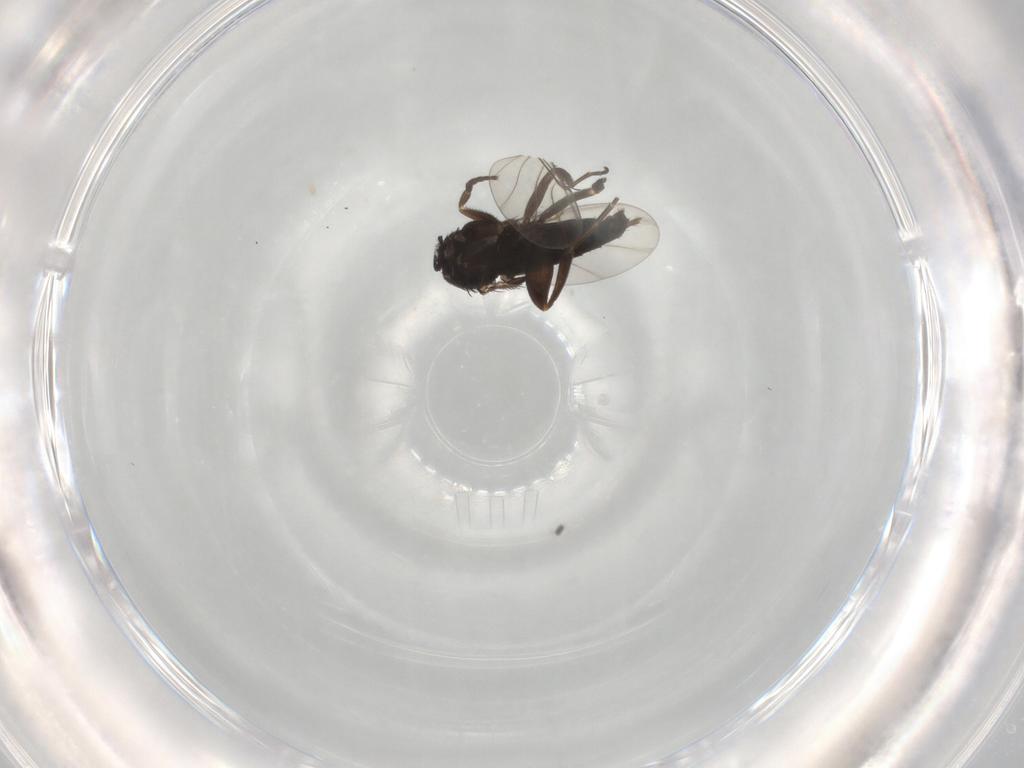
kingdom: Animalia
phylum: Arthropoda
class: Insecta
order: Diptera
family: Phoridae
